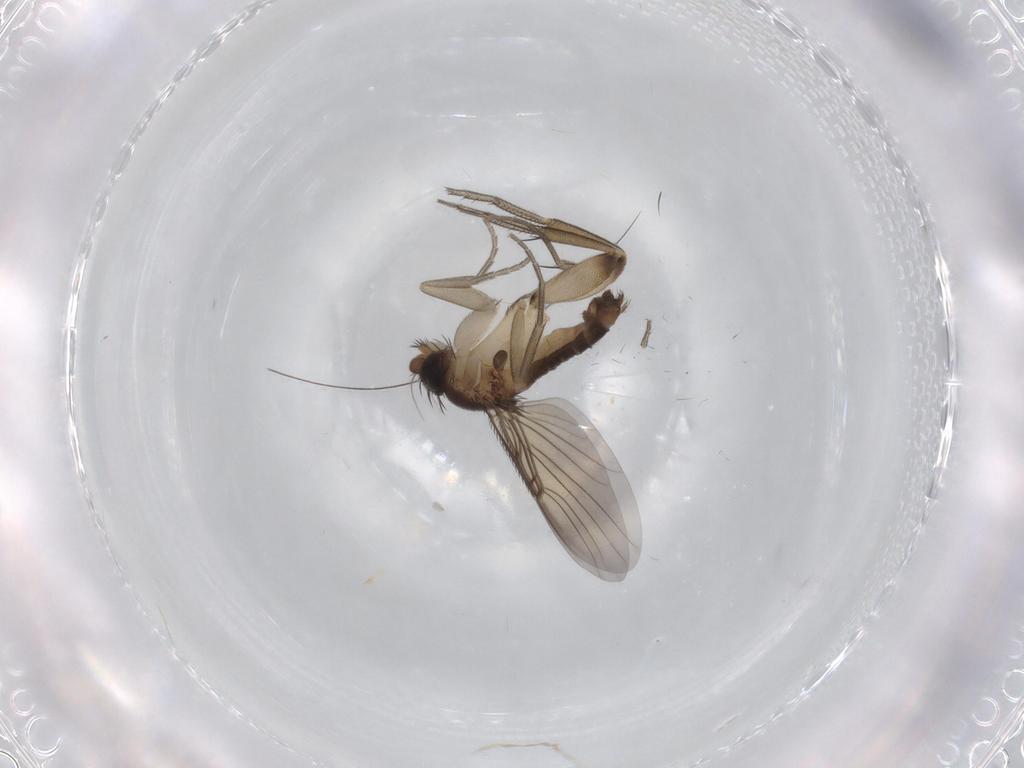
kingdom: Animalia
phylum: Arthropoda
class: Insecta
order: Diptera
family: Phoridae
